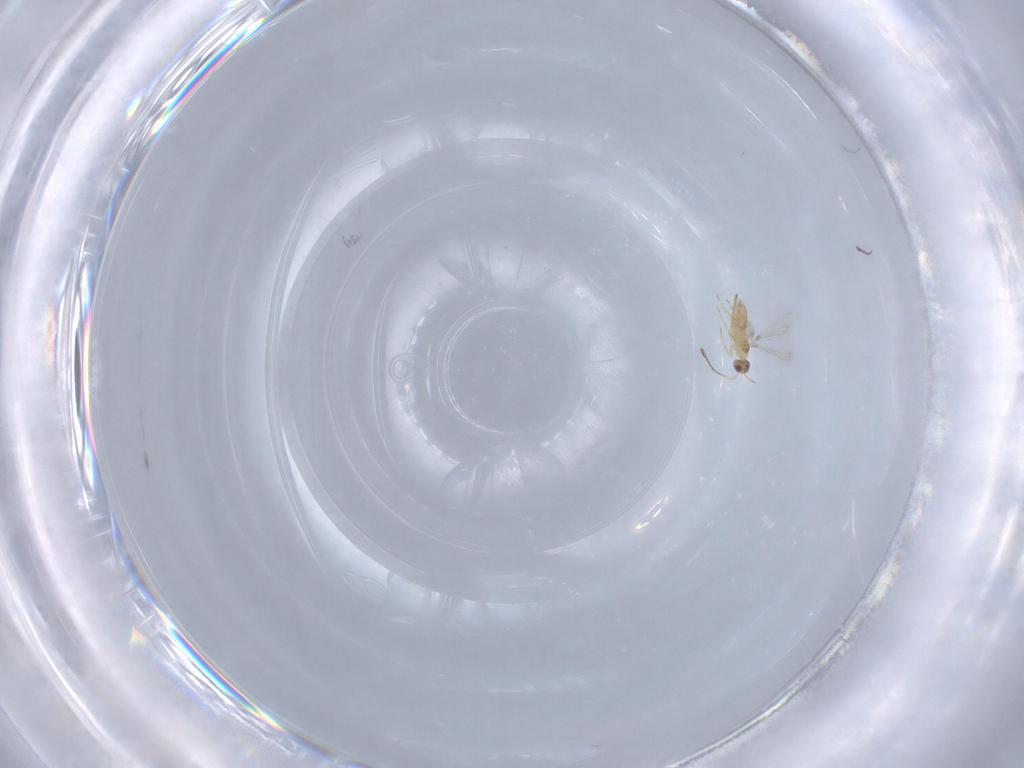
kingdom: Animalia
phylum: Arthropoda
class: Insecta
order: Hymenoptera
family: Mymaridae
